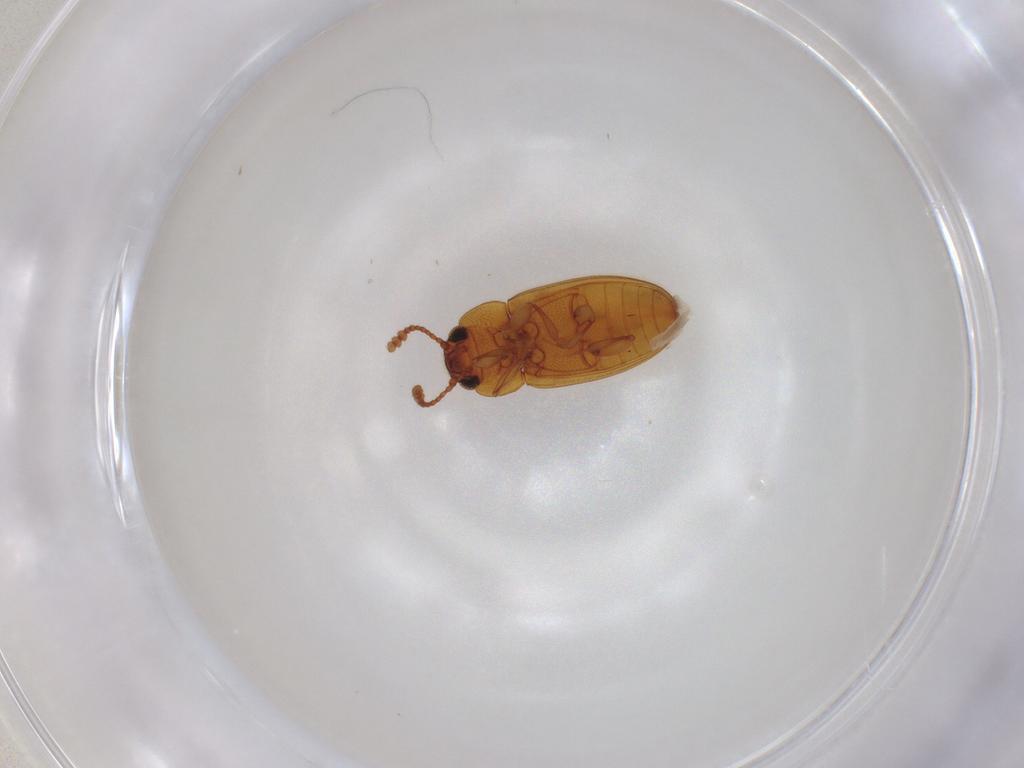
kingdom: Animalia
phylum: Arthropoda
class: Insecta
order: Coleoptera
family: Erotylidae
